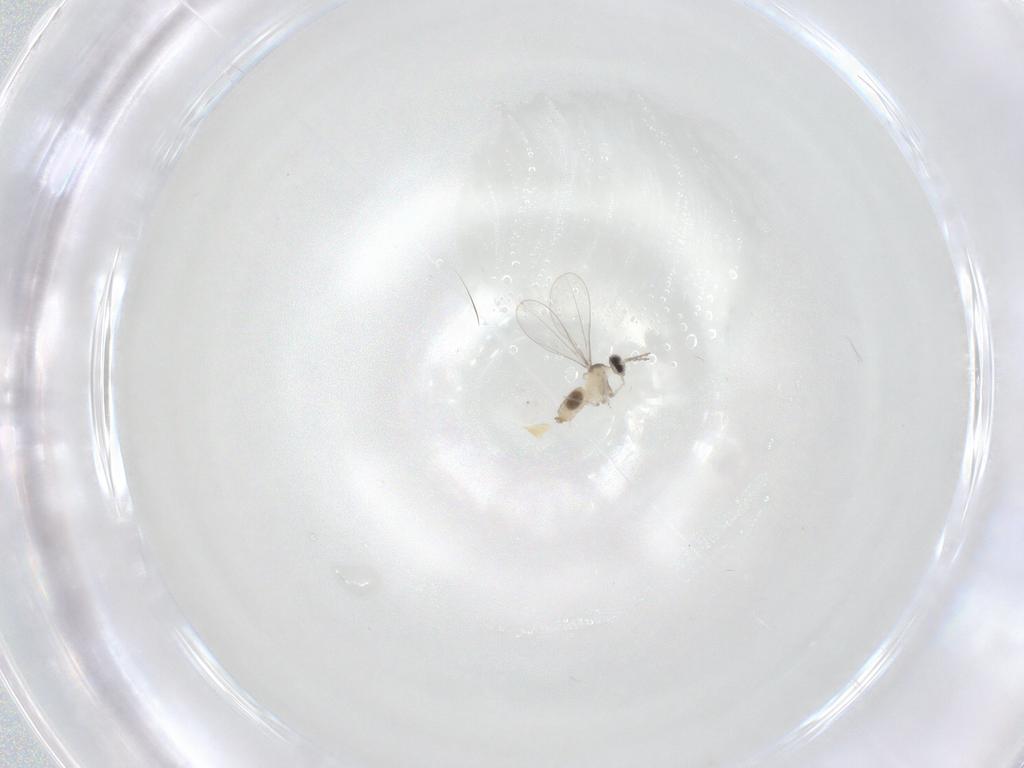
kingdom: Animalia
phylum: Arthropoda
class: Insecta
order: Diptera
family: Cecidomyiidae
